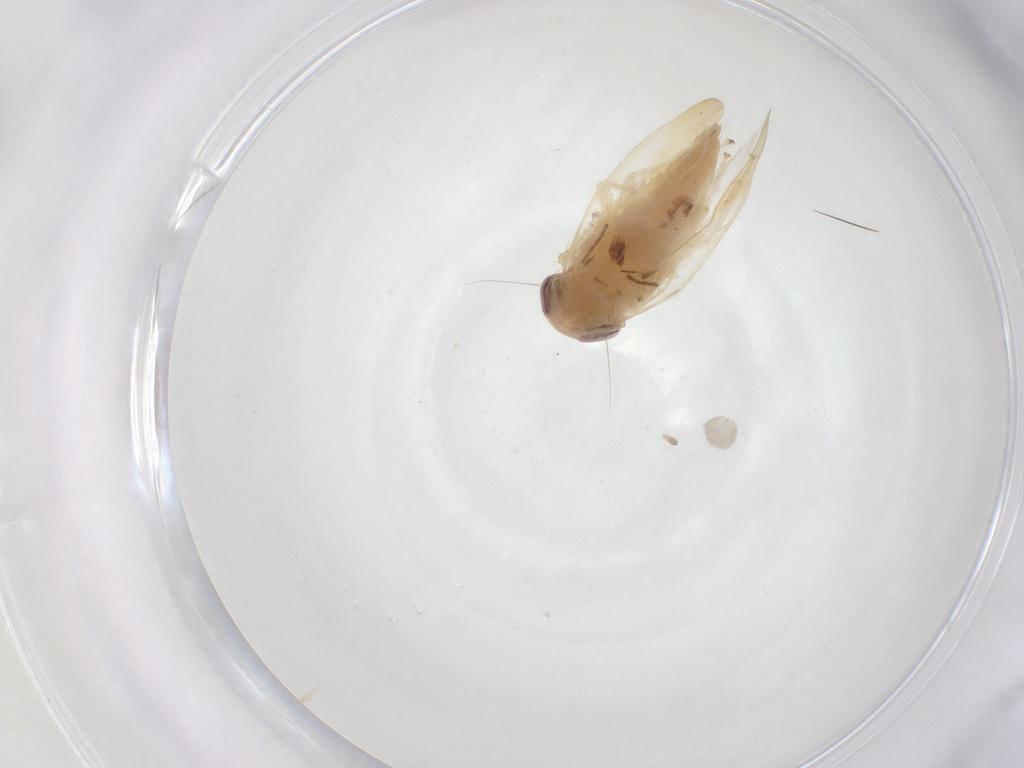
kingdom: Animalia
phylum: Arthropoda
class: Insecta
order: Hemiptera
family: Cicadellidae
